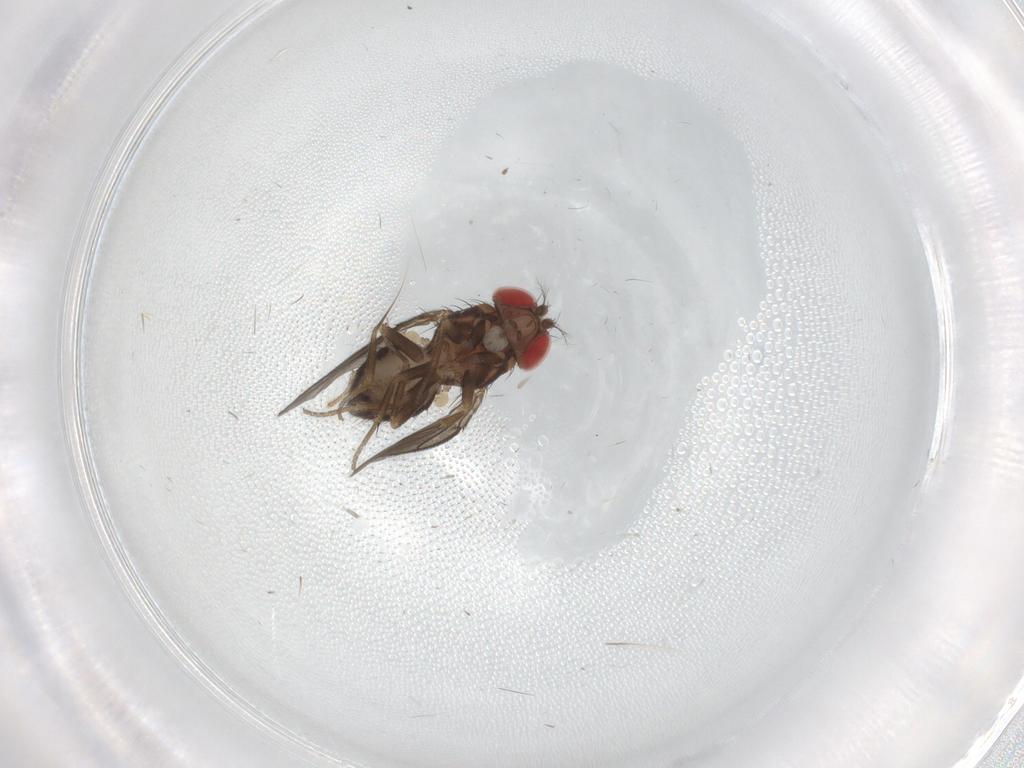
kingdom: Animalia
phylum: Arthropoda
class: Insecta
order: Diptera
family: Drosophilidae
